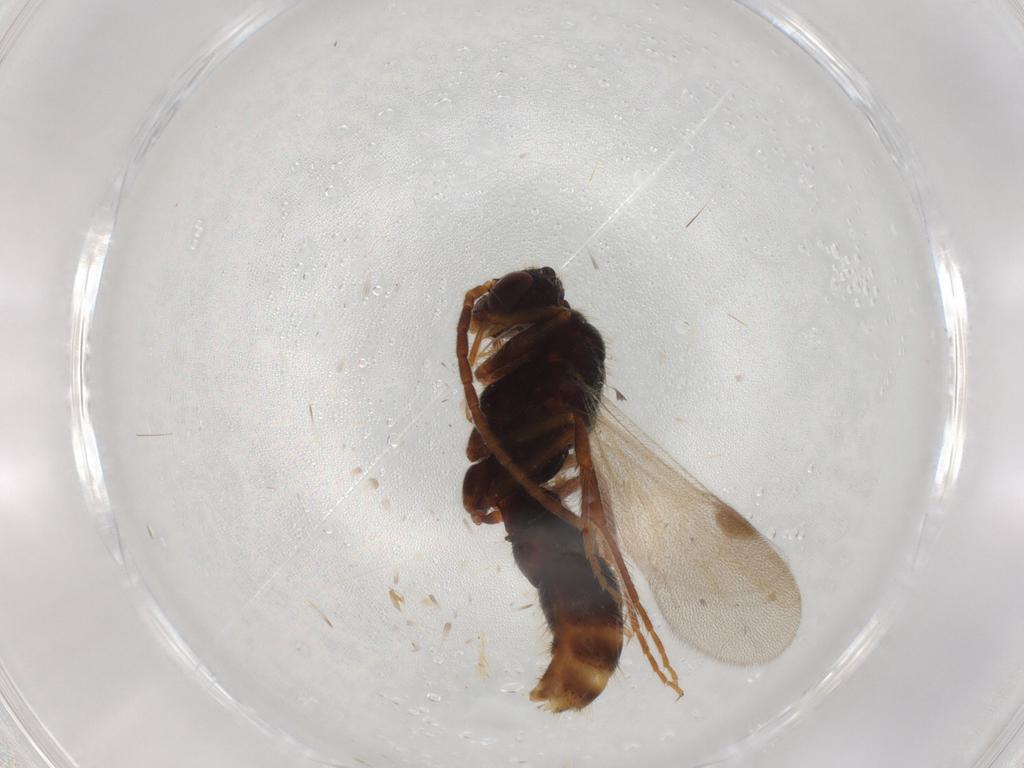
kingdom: Animalia
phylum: Arthropoda
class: Insecta
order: Hymenoptera
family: Formicidae
